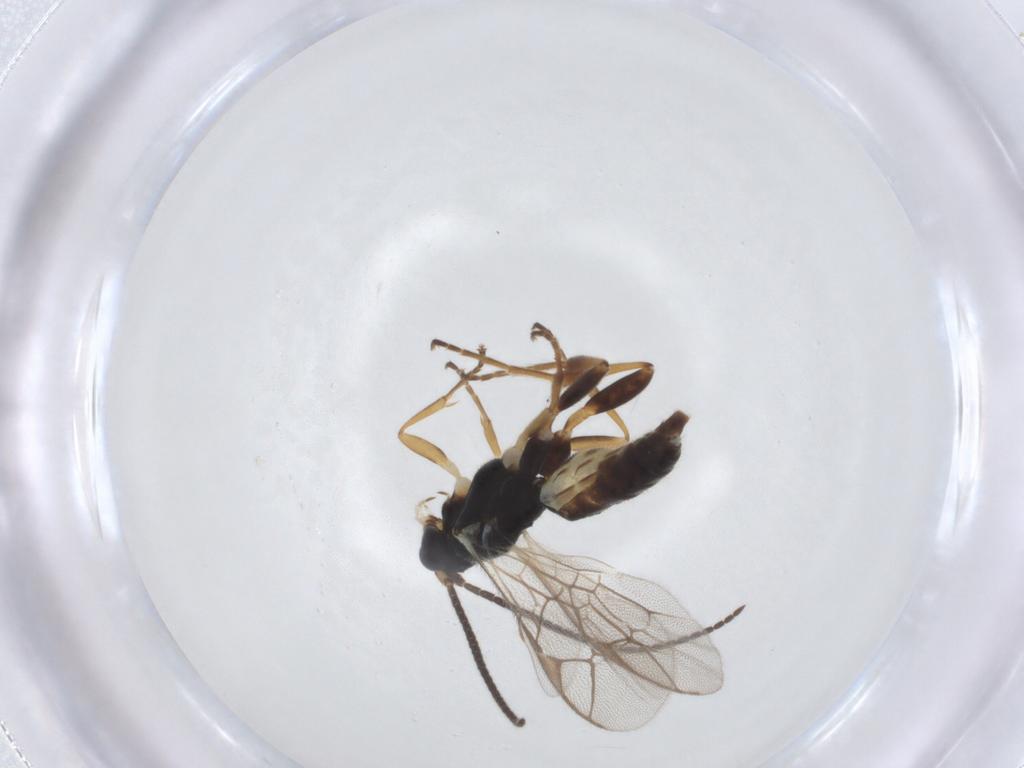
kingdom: Animalia
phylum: Arthropoda
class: Insecta
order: Hymenoptera
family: Ichneumonidae
